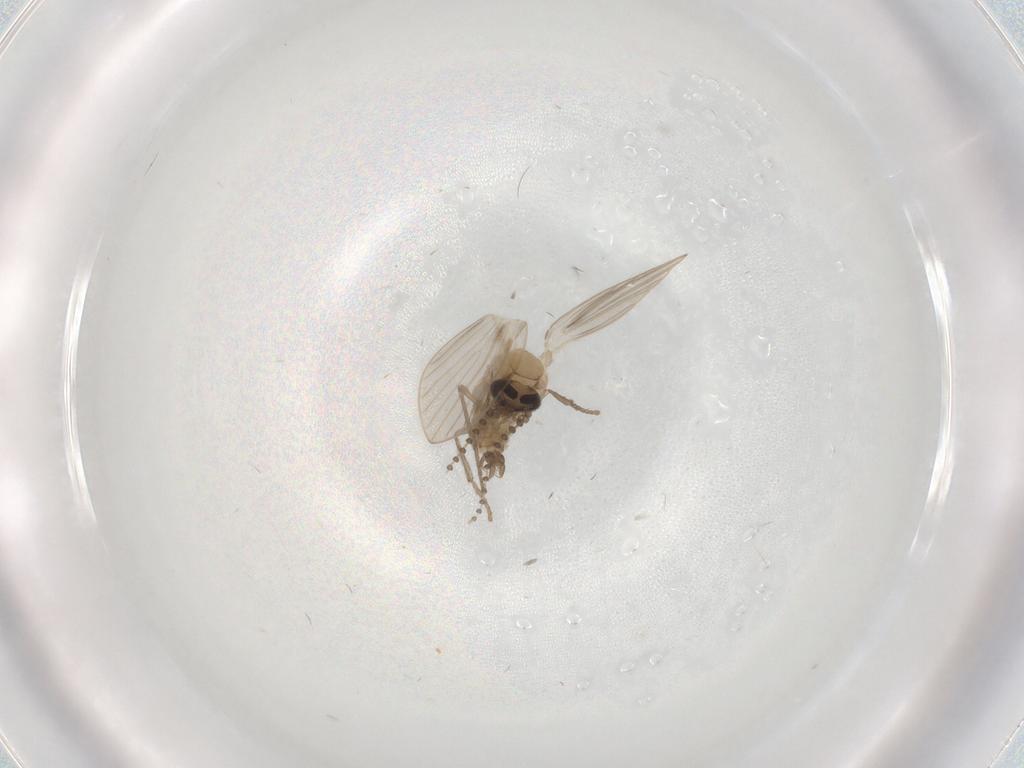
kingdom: Animalia
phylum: Arthropoda
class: Insecta
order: Diptera
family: Psychodidae
